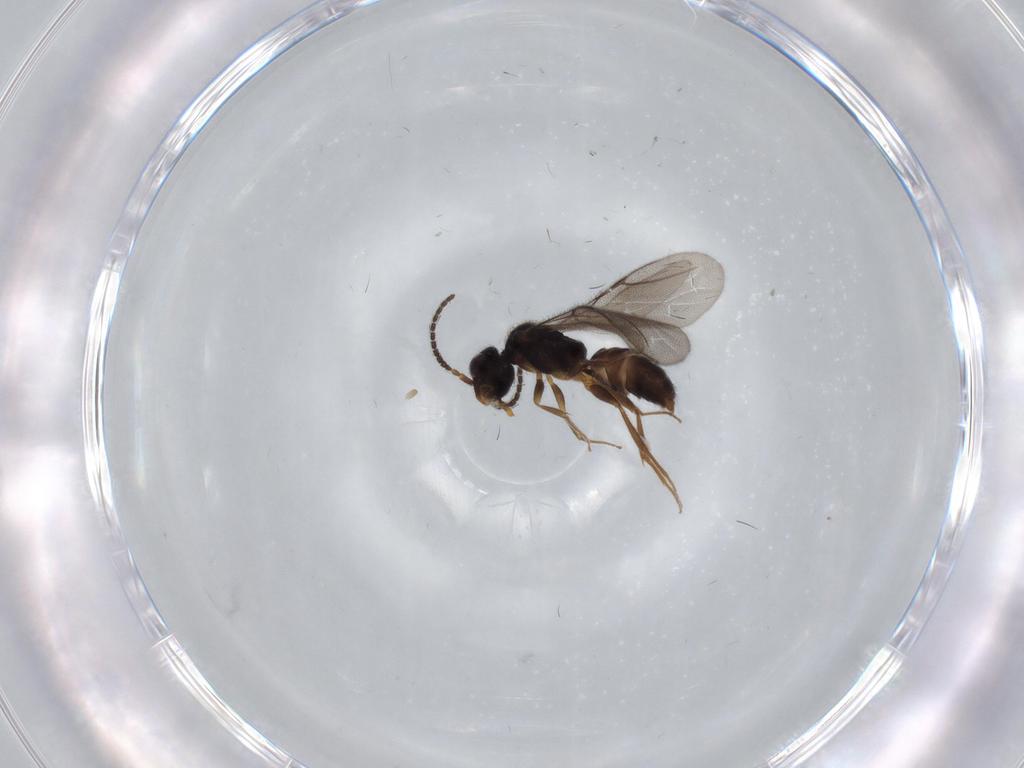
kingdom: Animalia
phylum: Arthropoda
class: Insecta
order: Hymenoptera
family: Bethylidae
